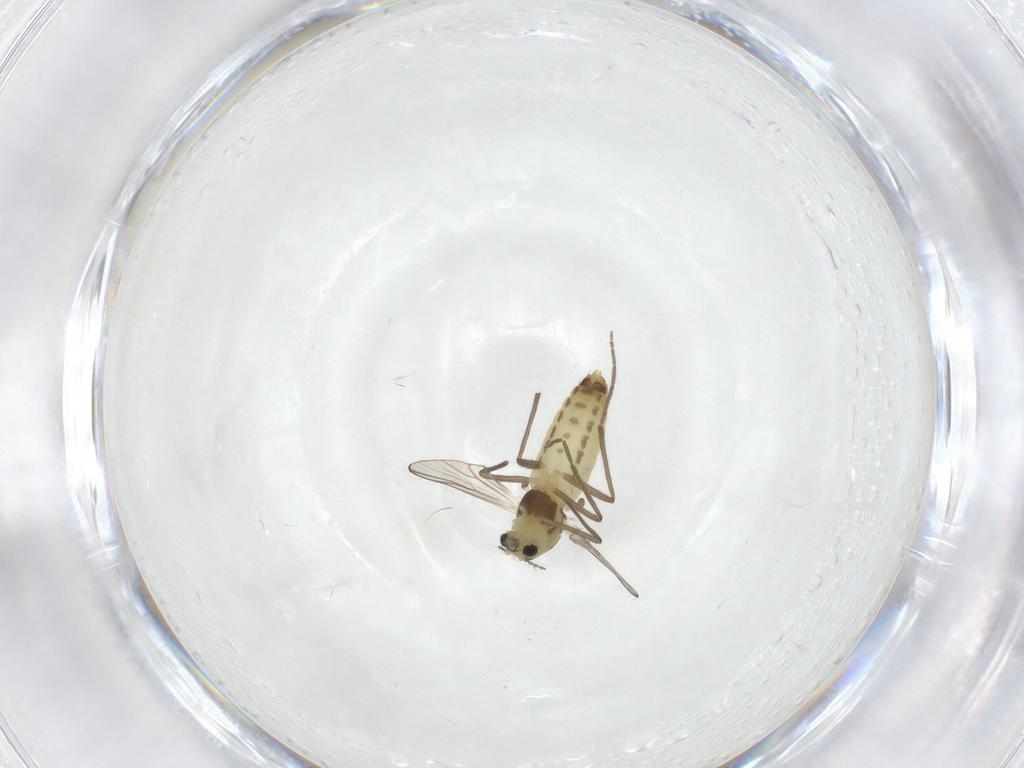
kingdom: Animalia
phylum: Arthropoda
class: Insecta
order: Diptera
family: Chironomidae
